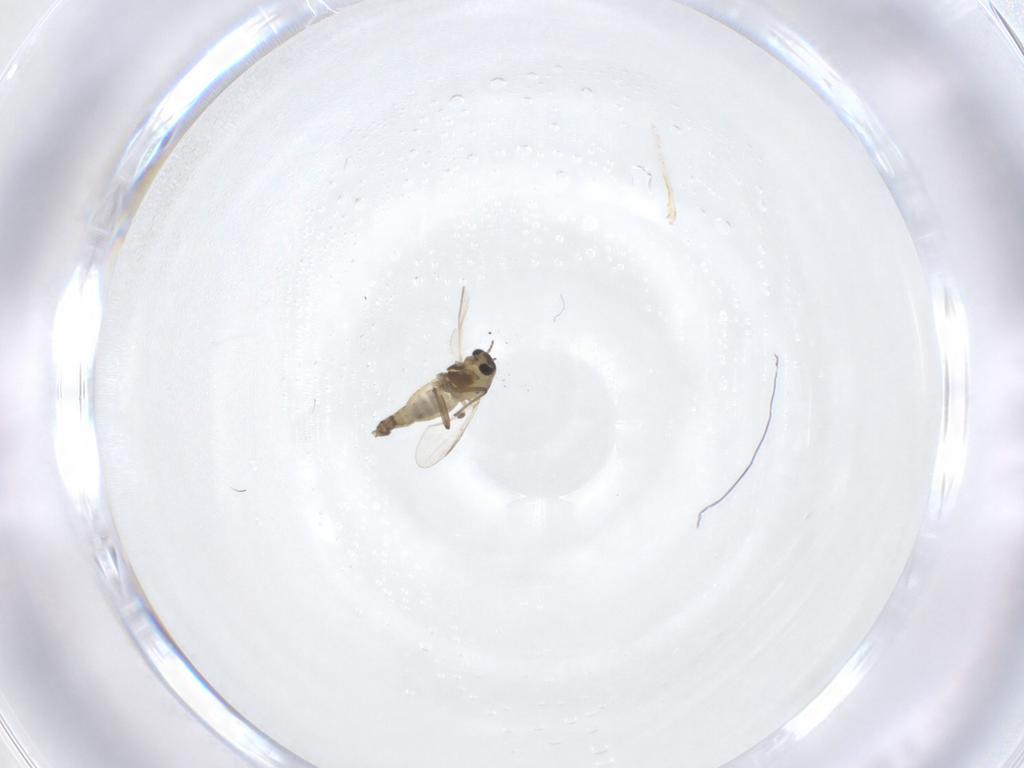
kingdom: Animalia
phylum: Arthropoda
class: Insecta
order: Diptera
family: Chironomidae
